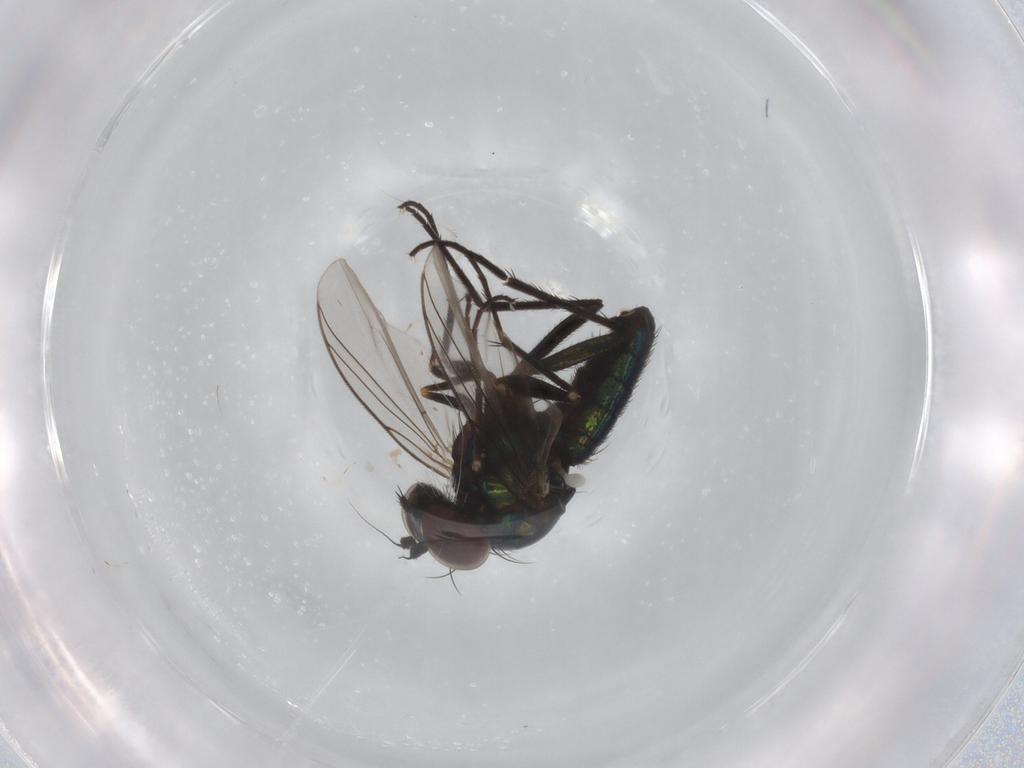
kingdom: Animalia
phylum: Arthropoda
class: Insecta
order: Diptera
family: Dolichopodidae
